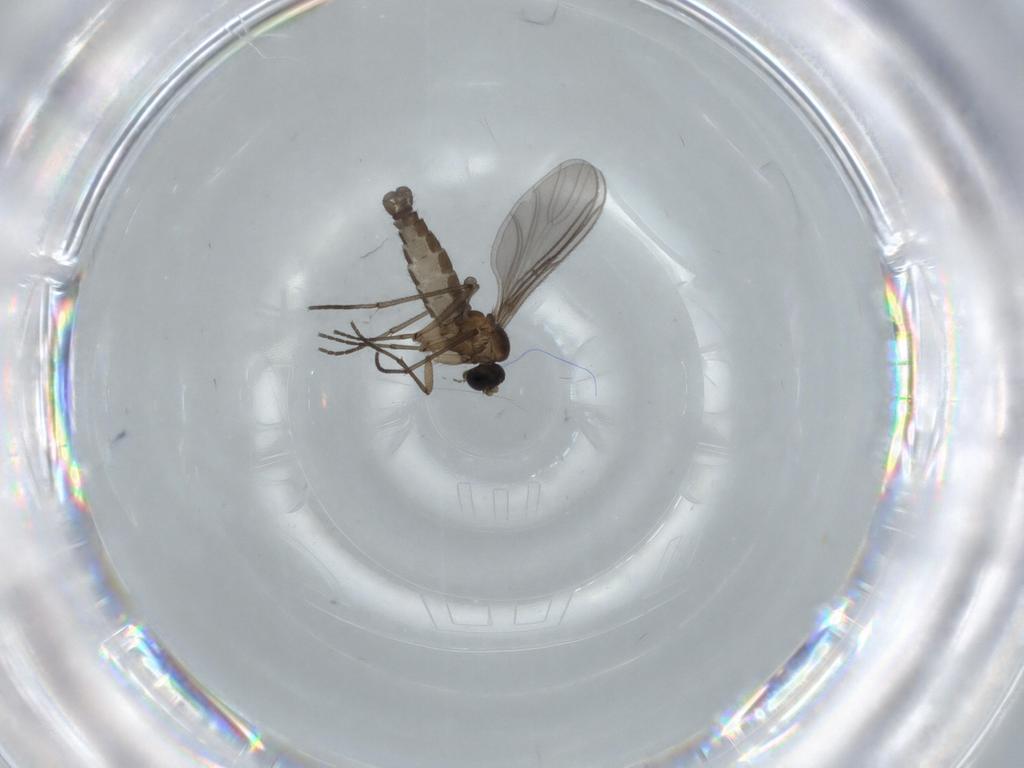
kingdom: Animalia
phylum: Arthropoda
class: Insecta
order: Diptera
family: Sciaridae
